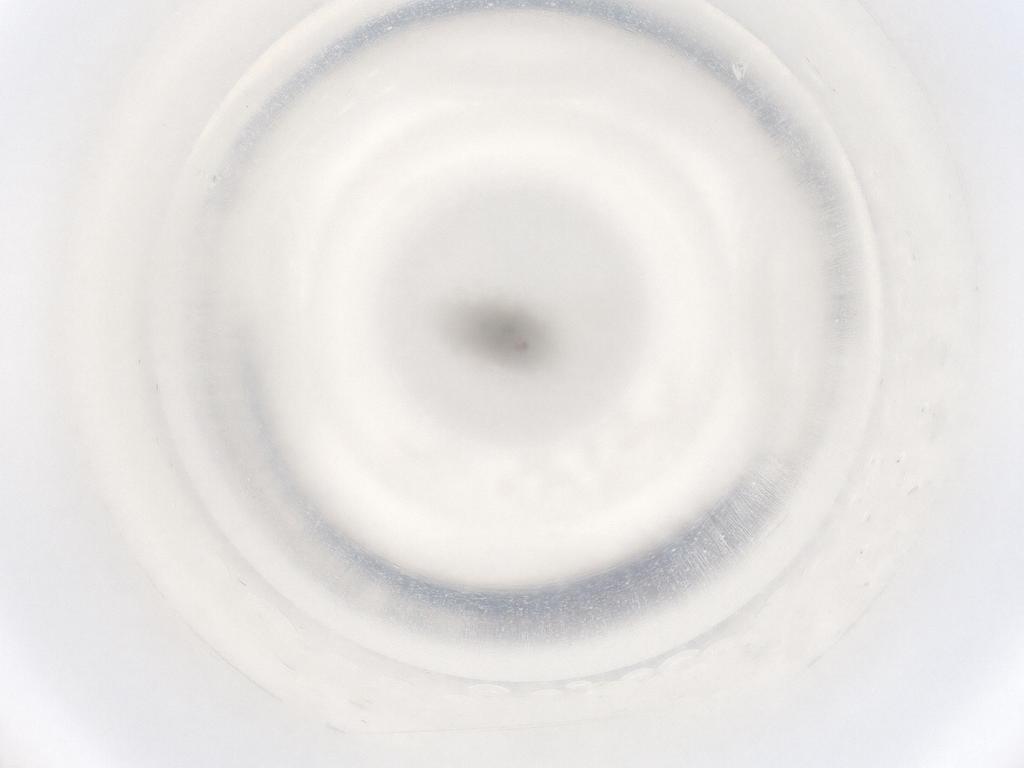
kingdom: Animalia
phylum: Arthropoda
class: Insecta
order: Diptera
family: Ceratopogonidae
